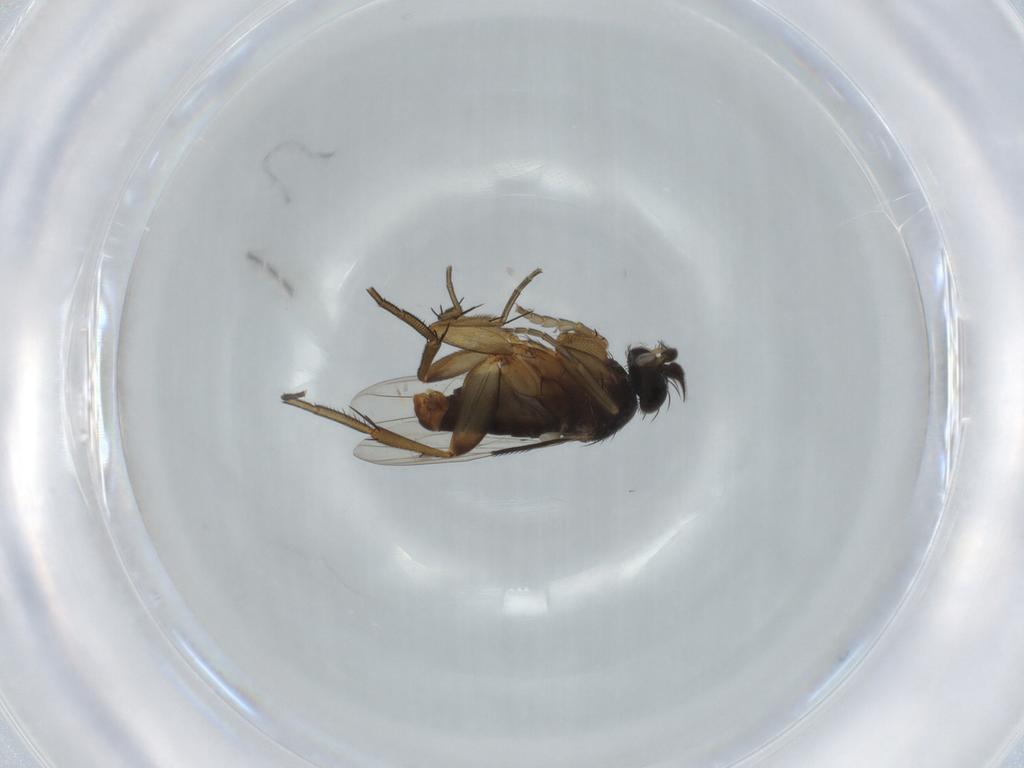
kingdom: Animalia
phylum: Arthropoda
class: Insecta
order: Diptera
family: Phoridae
